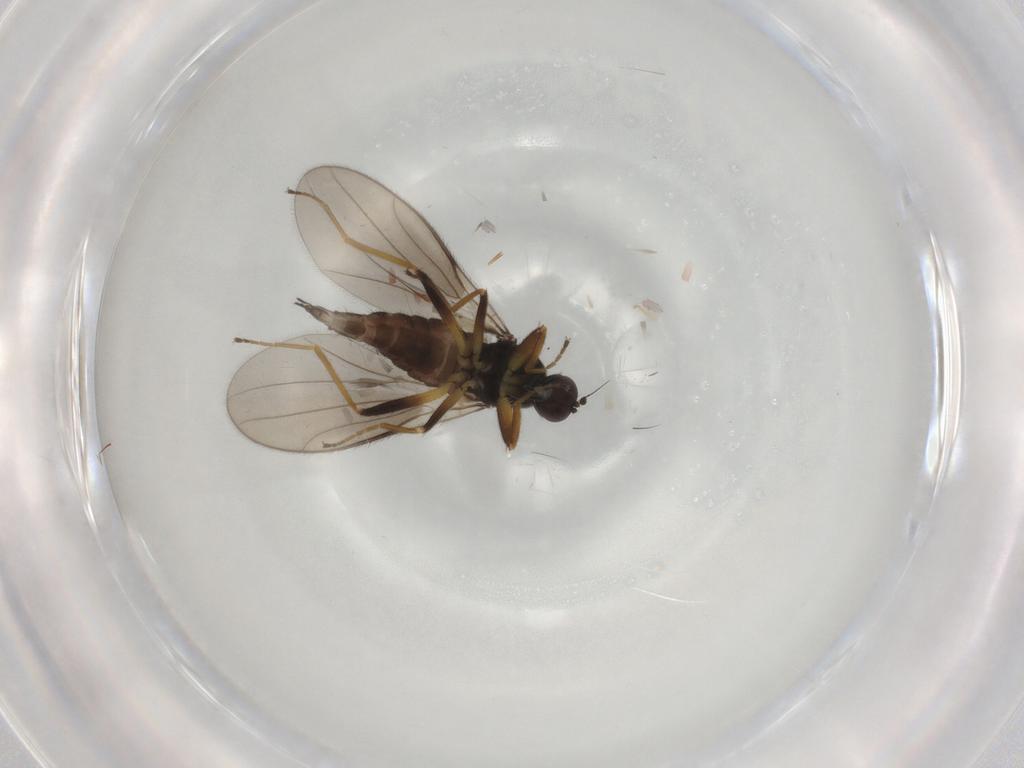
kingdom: Animalia
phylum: Arthropoda
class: Insecta
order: Diptera
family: Hybotidae
